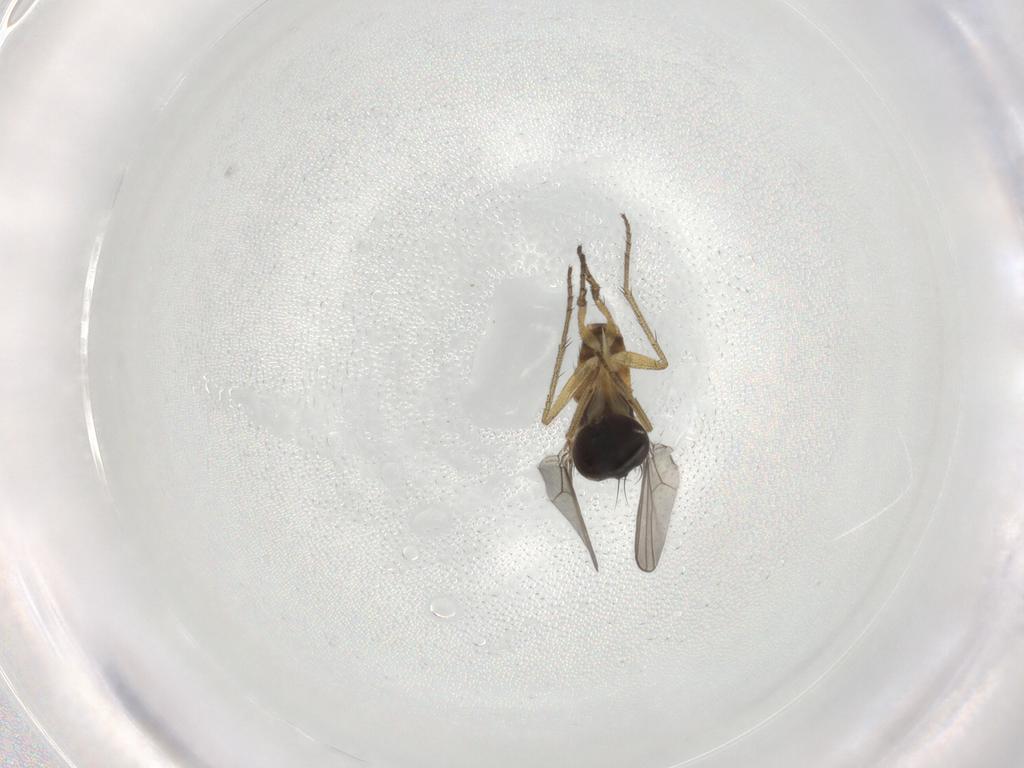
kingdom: Animalia
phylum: Arthropoda
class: Insecta
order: Diptera
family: Dolichopodidae
